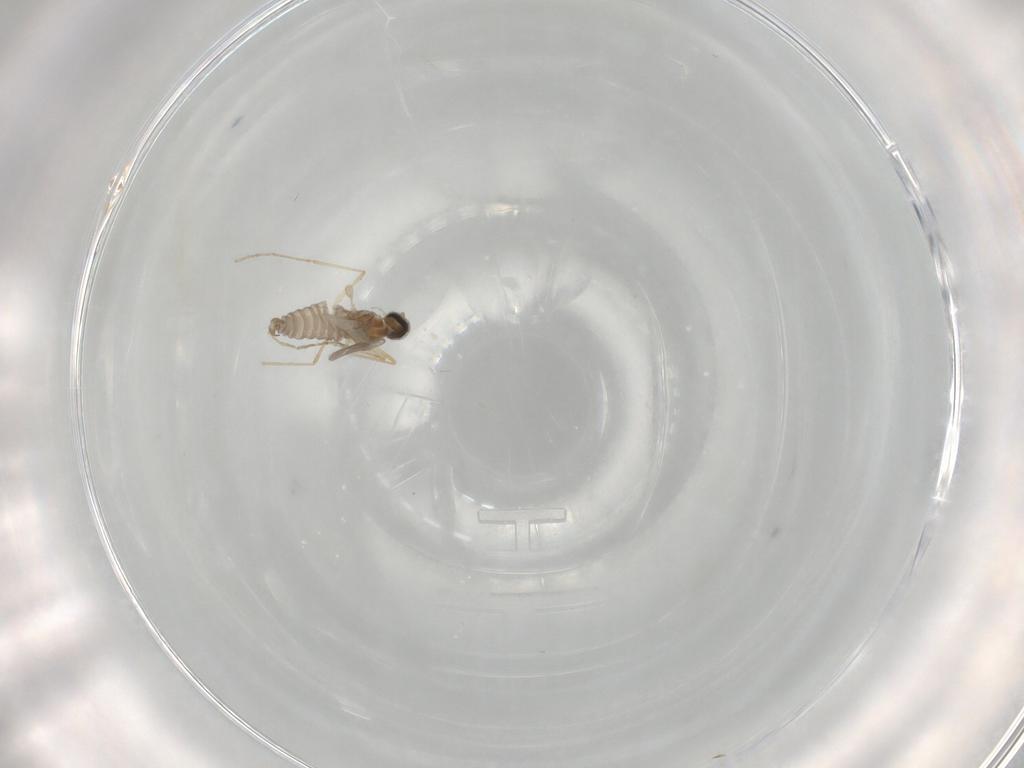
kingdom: Animalia
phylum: Arthropoda
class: Insecta
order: Diptera
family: Cecidomyiidae
